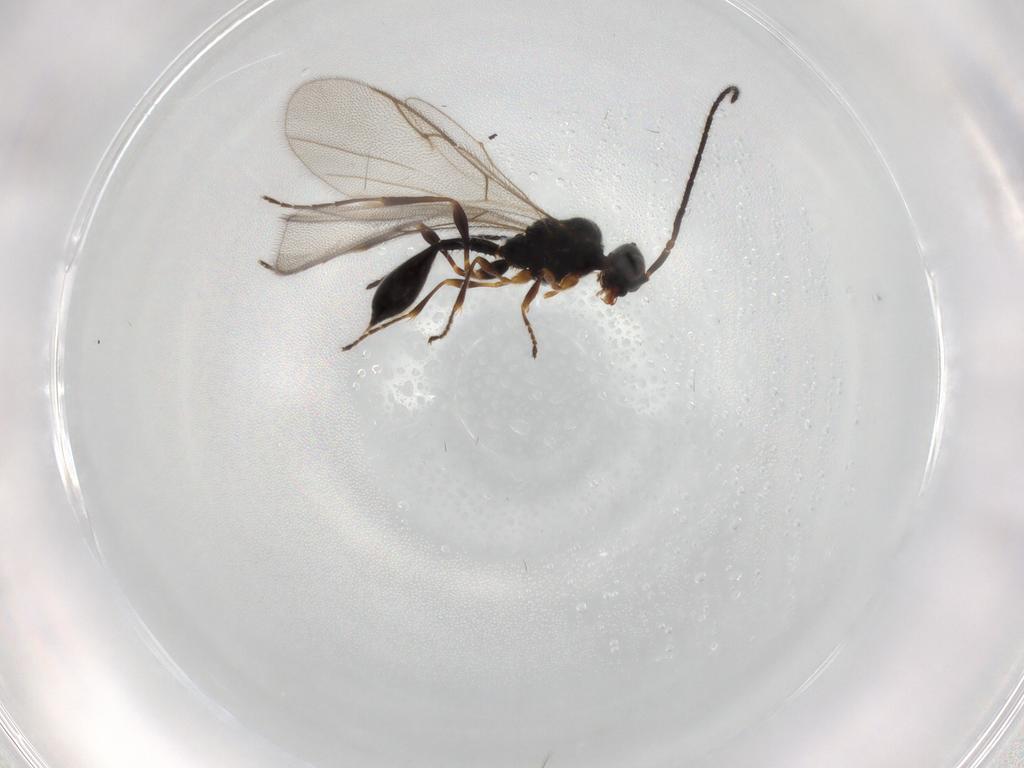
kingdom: Animalia
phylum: Arthropoda
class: Insecta
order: Hymenoptera
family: Diapriidae
